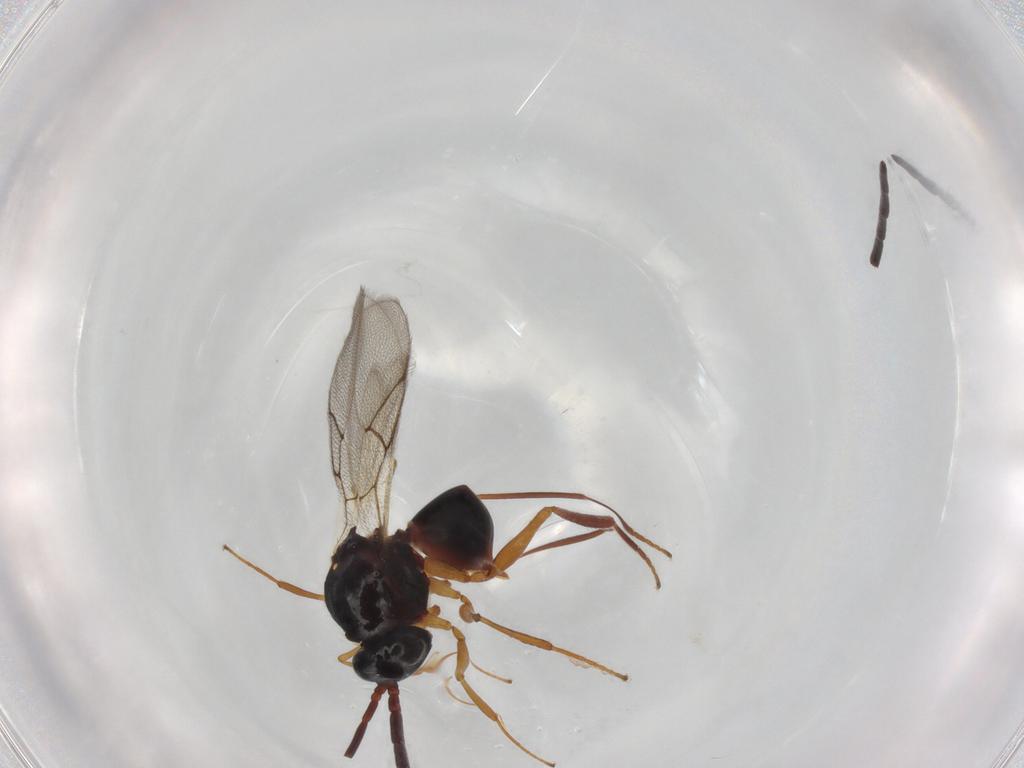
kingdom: Animalia
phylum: Arthropoda
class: Insecta
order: Hymenoptera
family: Figitidae
